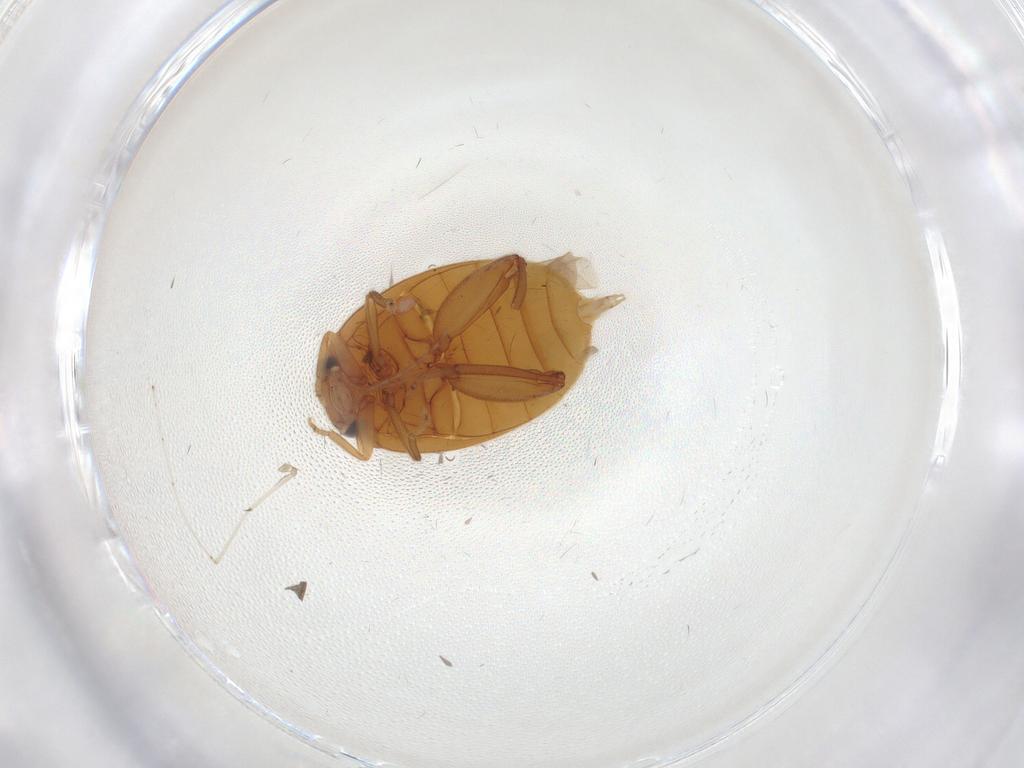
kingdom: Animalia
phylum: Arthropoda
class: Insecta
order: Coleoptera
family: Scirtidae
